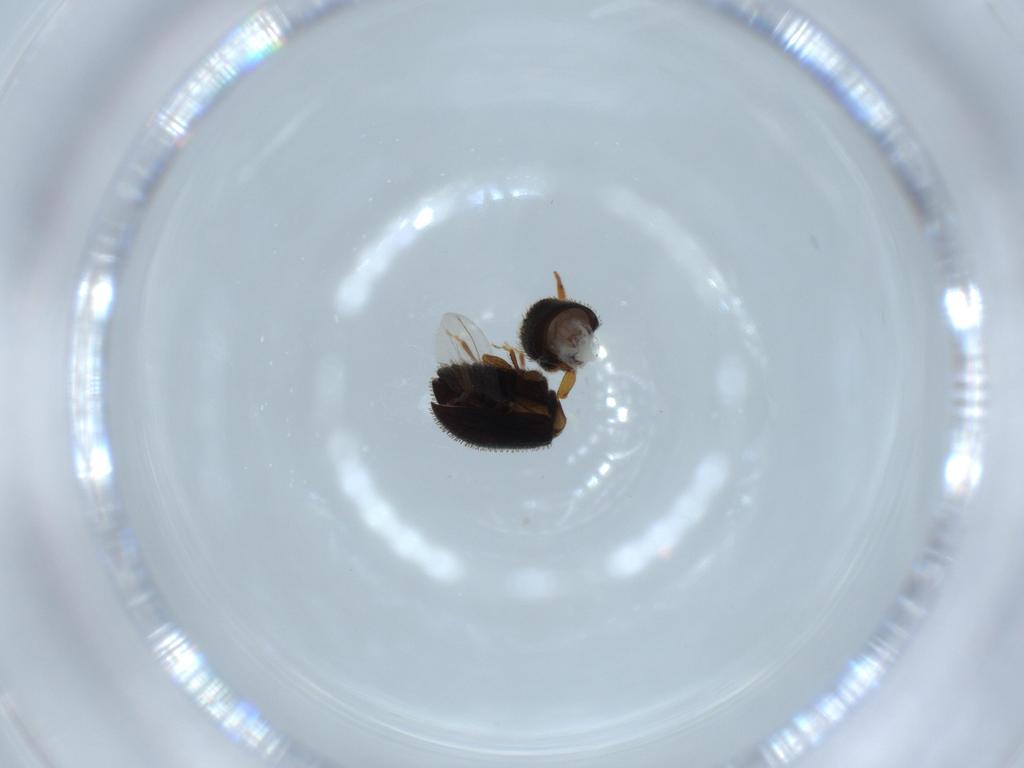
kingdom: Animalia
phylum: Arthropoda
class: Insecta
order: Coleoptera
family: Curculionidae
